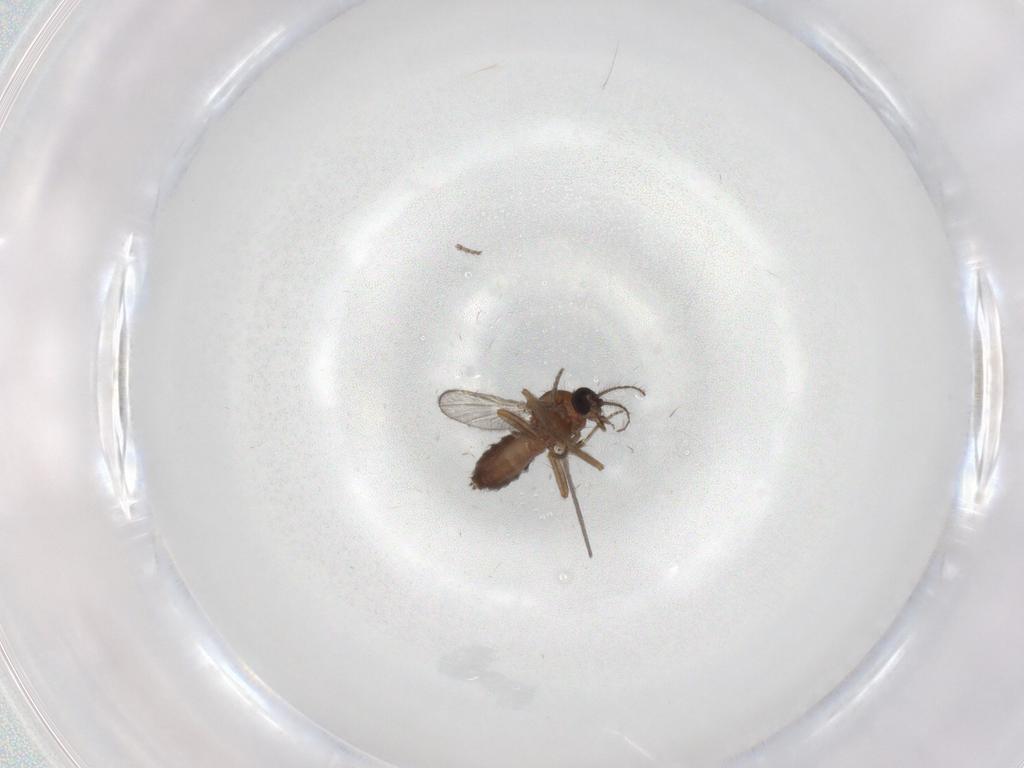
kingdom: Animalia
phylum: Arthropoda
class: Insecta
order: Diptera
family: Ceratopogonidae
